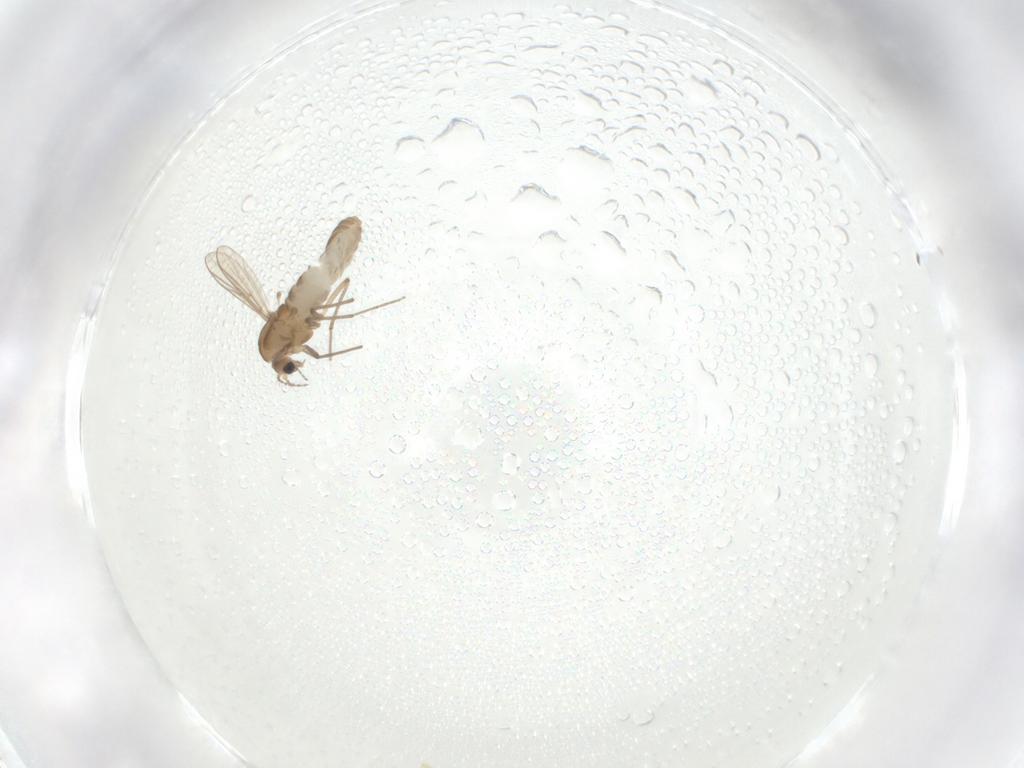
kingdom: Animalia
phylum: Arthropoda
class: Insecta
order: Diptera
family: Chironomidae
